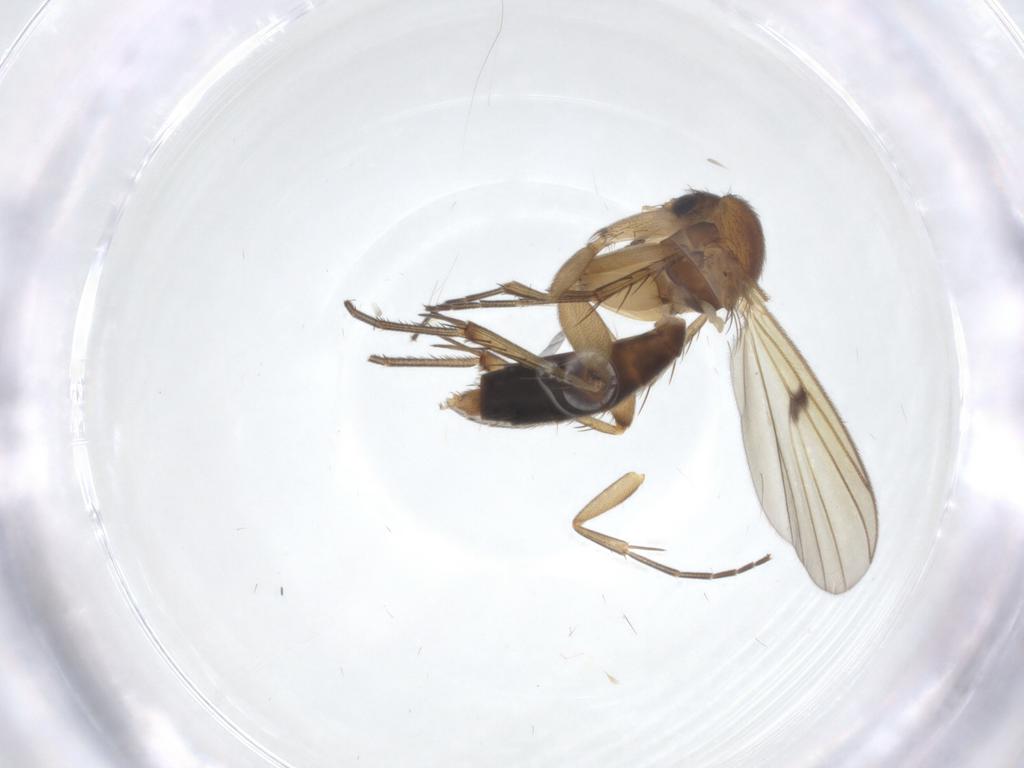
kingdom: Animalia
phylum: Arthropoda
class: Insecta
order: Diptera
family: Mycetophilidae
